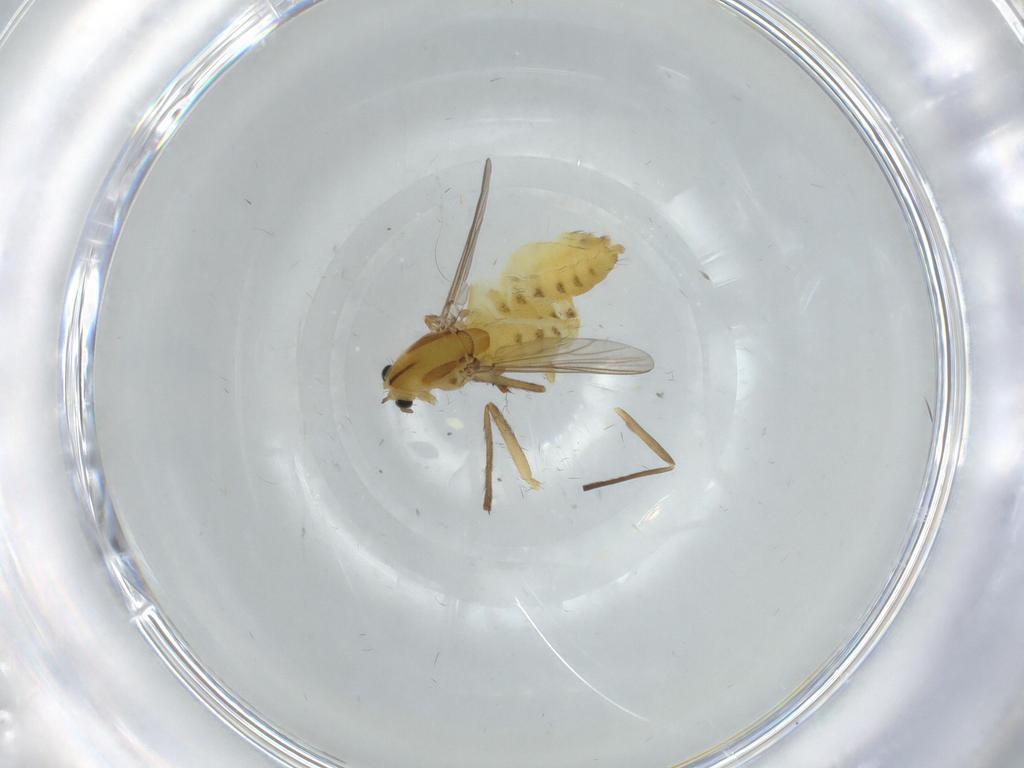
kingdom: Animalia
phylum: Arthropoda
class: Insecta
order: Diptera
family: Chironomidae
